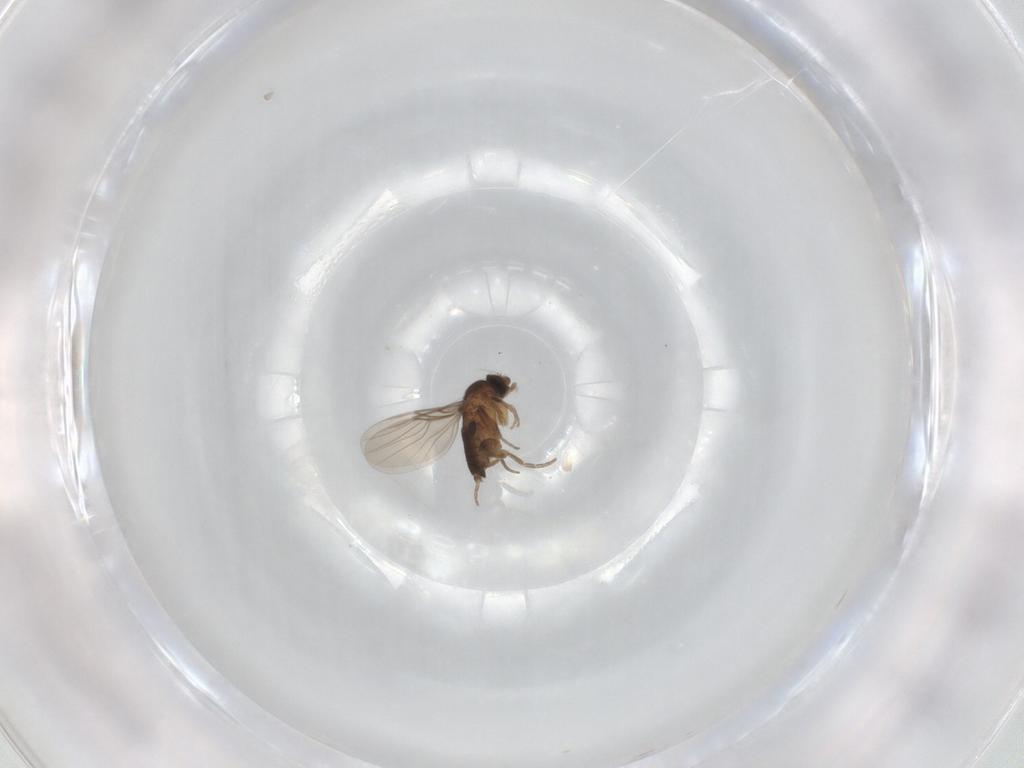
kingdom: Animalia
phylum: Arthropoda
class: Insecta
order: Diptera
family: Phoridae
